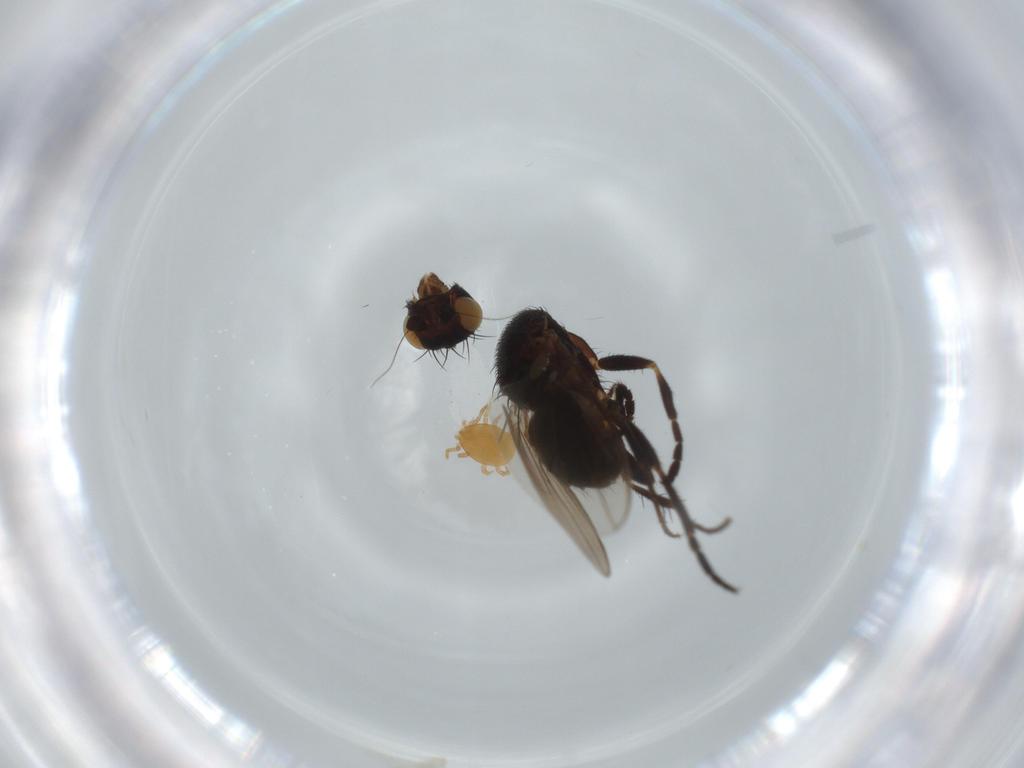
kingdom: Animalia
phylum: Arthropoda
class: Insecta
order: Diptera
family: Sphaeroceridae
